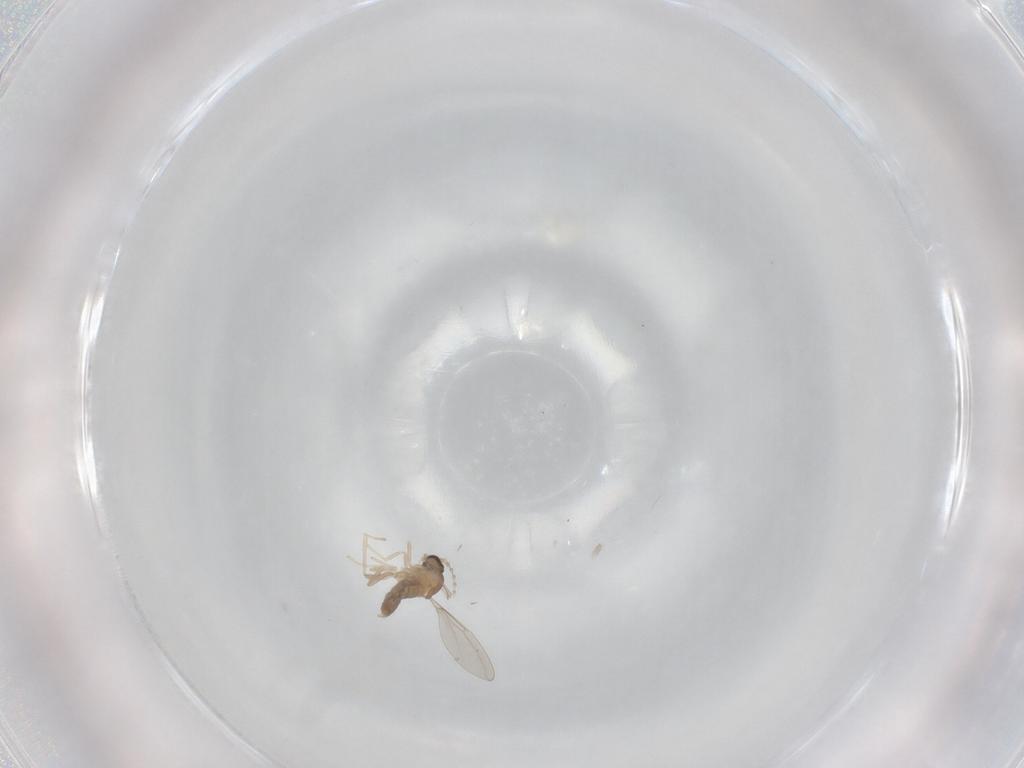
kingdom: Animalia
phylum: Arthropoda
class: Insecta
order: Diptera
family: Cecidomyiidae
